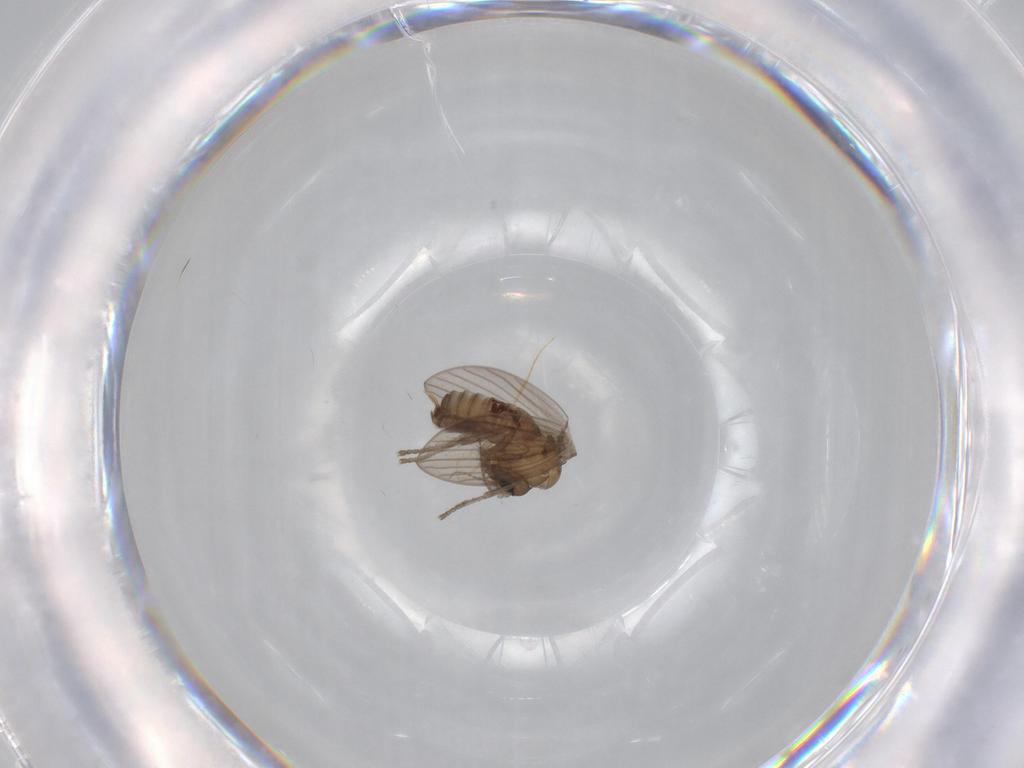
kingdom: Animalia
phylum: Arthropoda
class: Insecta
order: Diptera
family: Psychodidae
